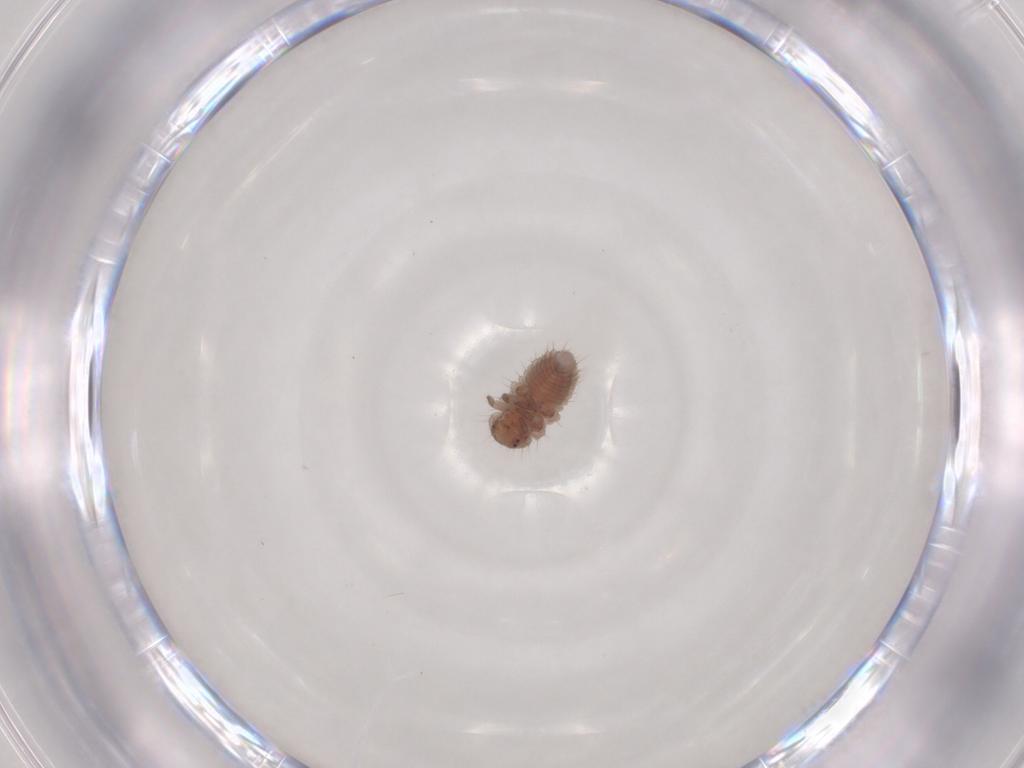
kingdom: Animalia
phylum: Arthropoda
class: Insecta
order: Coleoptera
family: Coccinellidae
